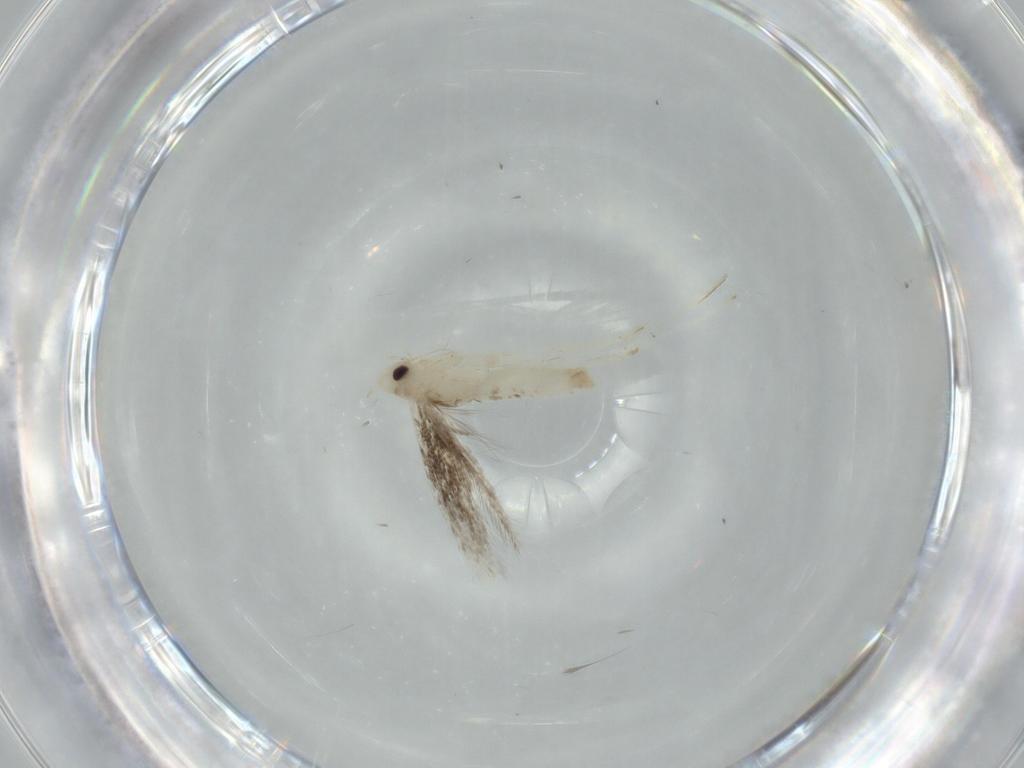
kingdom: Animalia
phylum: Arthropoda
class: Insecta
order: Lepidoptera
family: Gracillariidae
